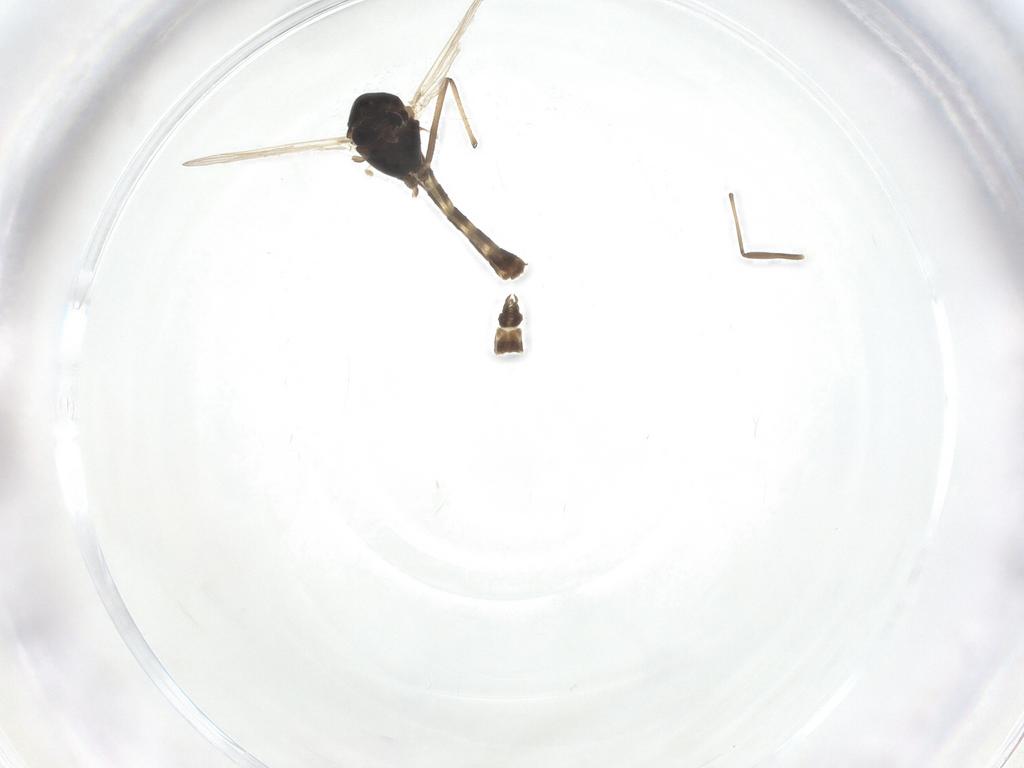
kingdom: Animalia
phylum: Arthropoda
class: Insecta
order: Diptera
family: Chironomidae
